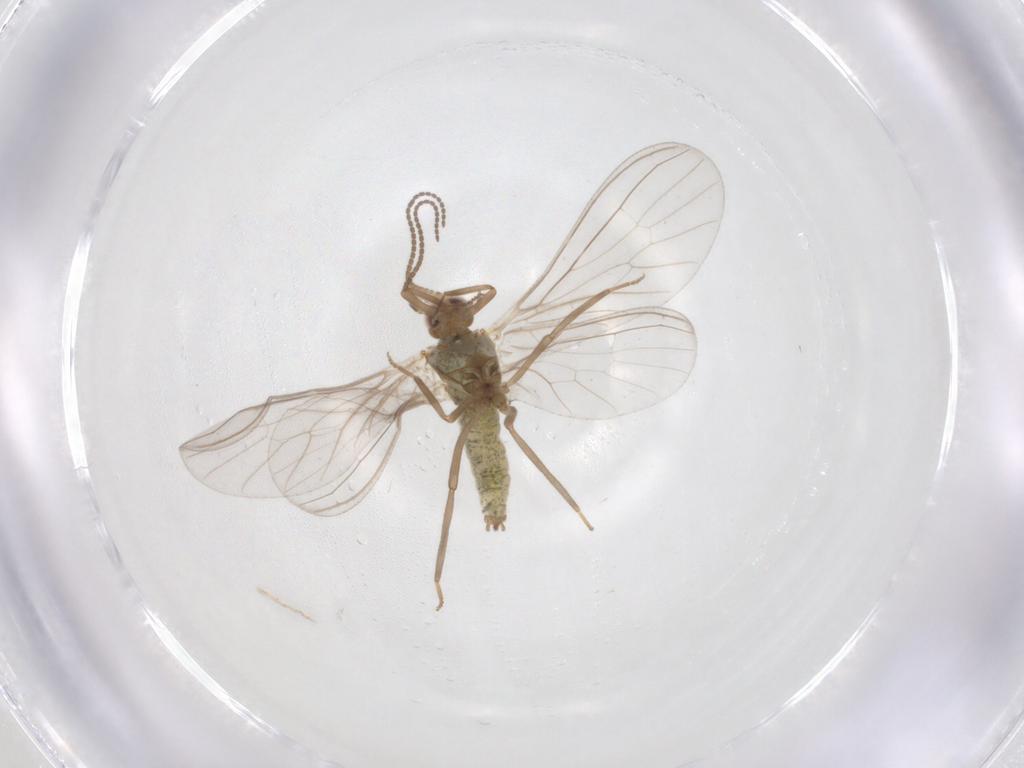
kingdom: Animalia
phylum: Arthropoda
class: Insecta
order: Neuroptera
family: Coniopterygidae
